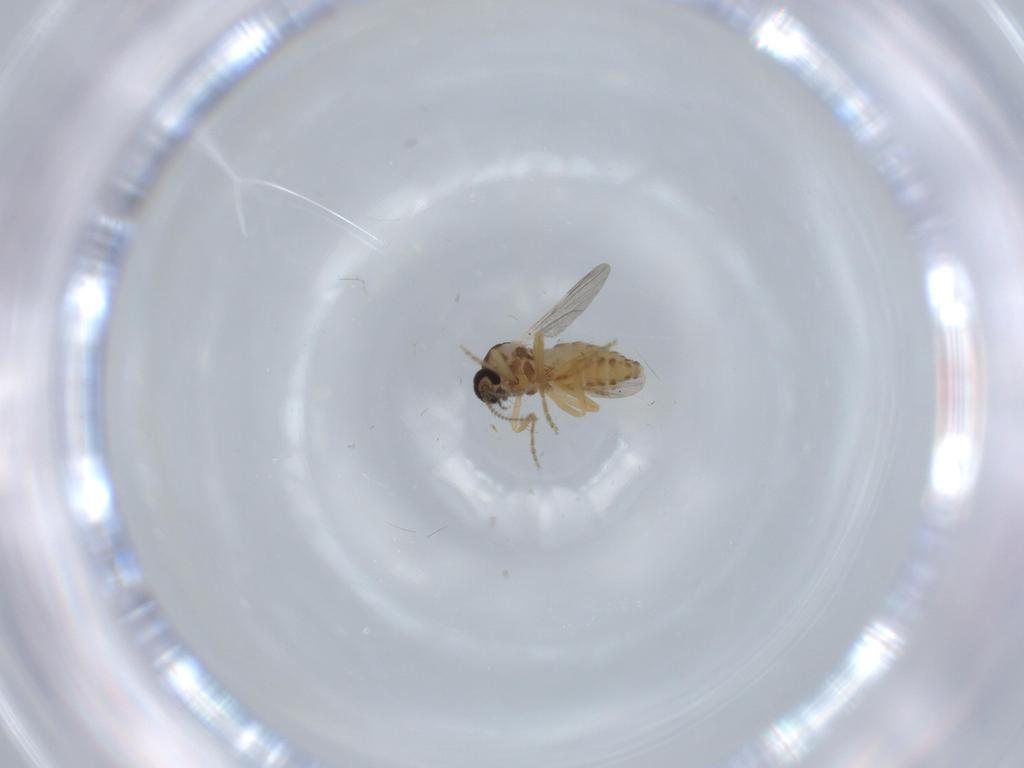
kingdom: Animalia
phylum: Arthropoda
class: Insecta
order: Diptera
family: Ceratopogonidae
